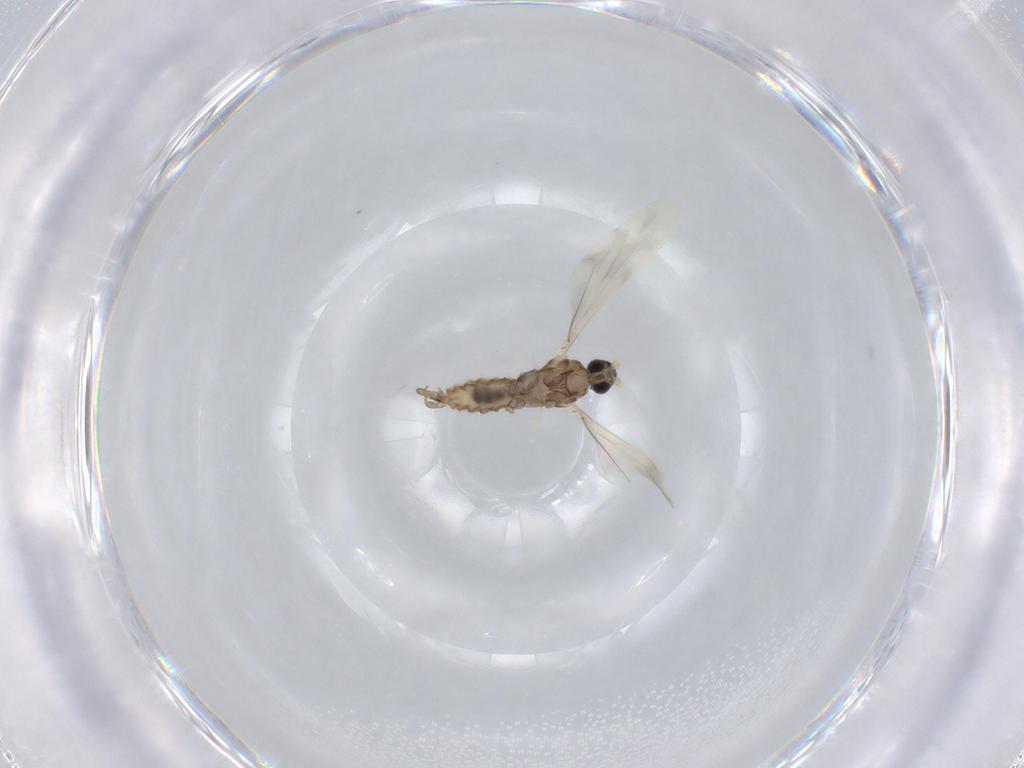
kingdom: Animalia
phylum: Arthropoda
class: Insecta
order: Diptera
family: Cecidomyiidae
